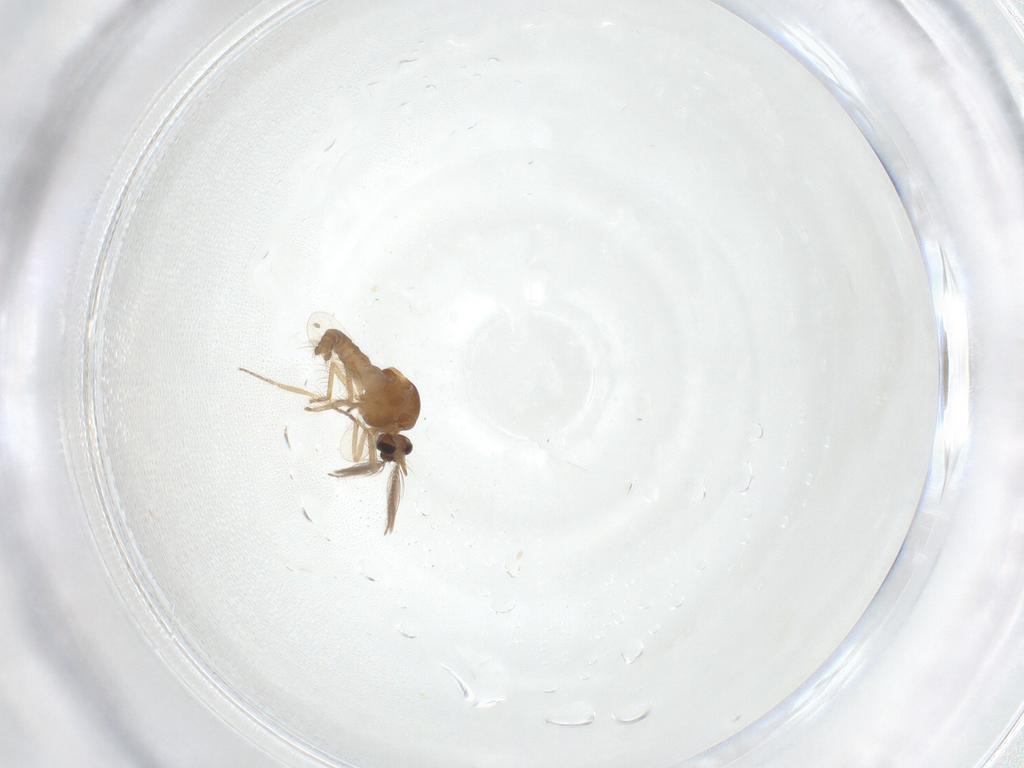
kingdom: Animalia
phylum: Arthropoda
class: Insecta
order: Diptera
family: Ceratopogonidae
